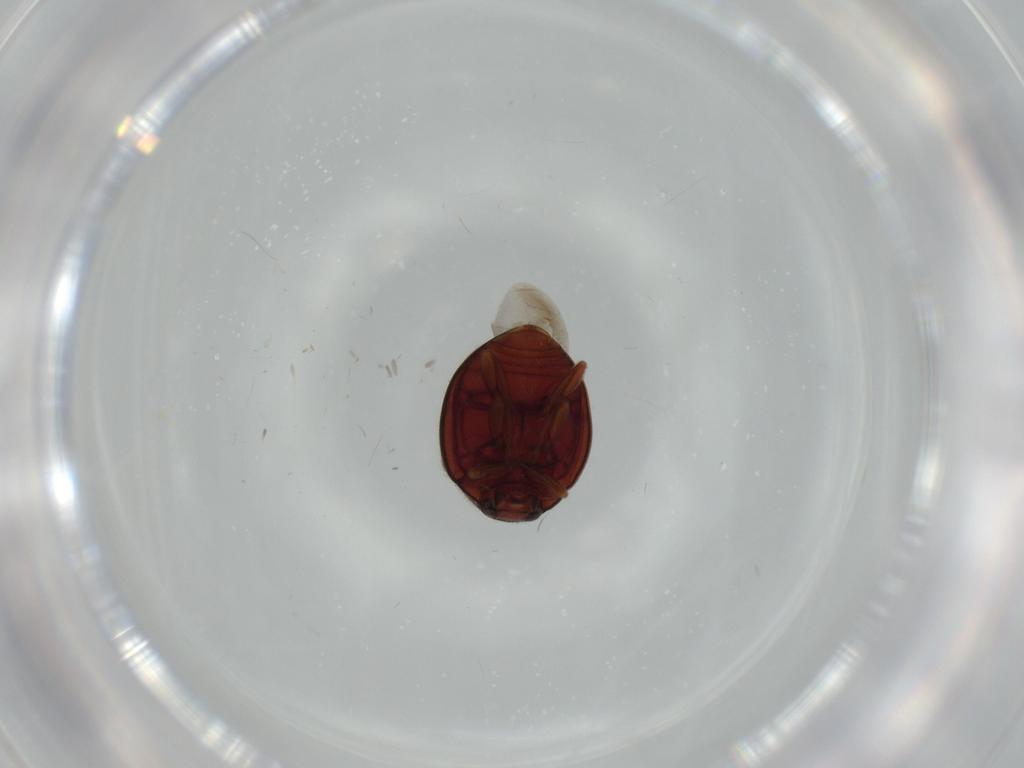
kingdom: Animalia
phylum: Arthropoda
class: Insecta
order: Coleoptera
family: Coccinellidae
